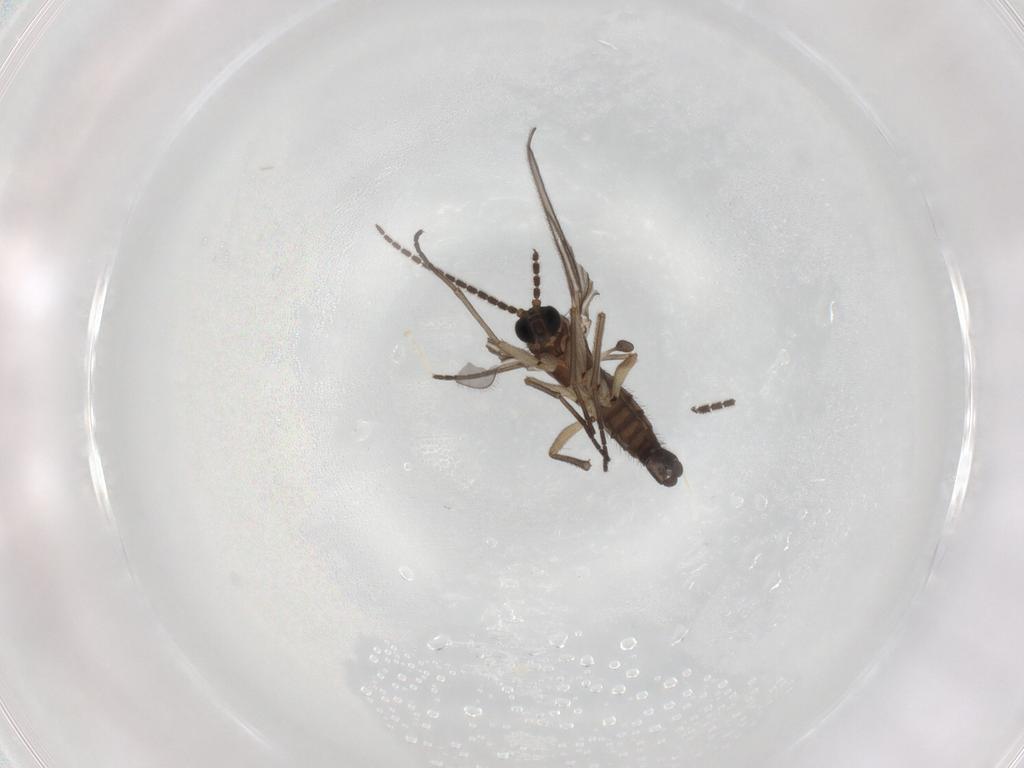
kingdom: Animalia
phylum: Arthropoda
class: Insecta
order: Diptera
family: Sciaridae
